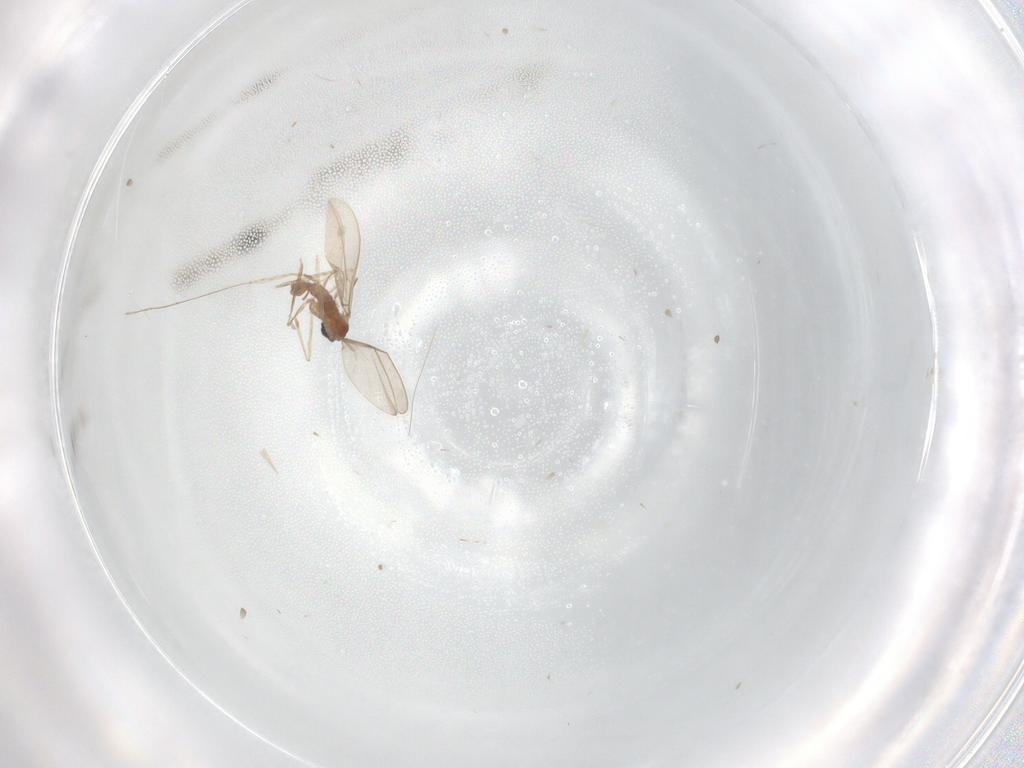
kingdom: Animalia
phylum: Arthropoda
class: Insecta
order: Diptera
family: Cecidomyiidae
